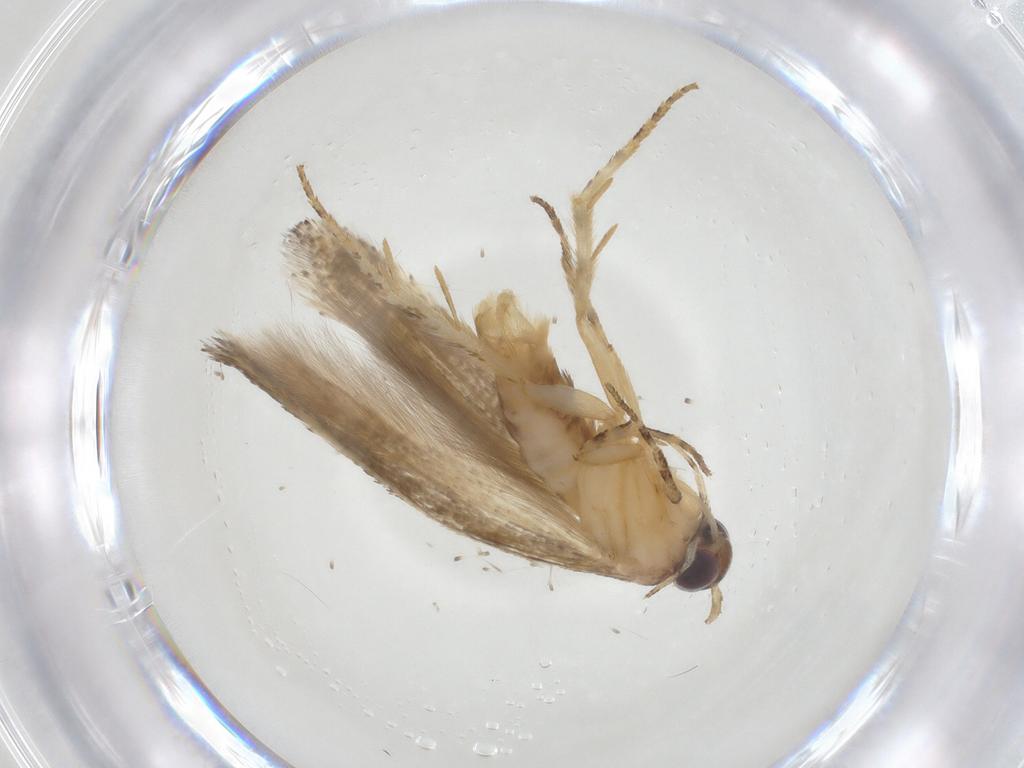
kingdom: Animalia
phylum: Arthropoda
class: Insecta
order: Lepidoptera
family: Gelechiidae
